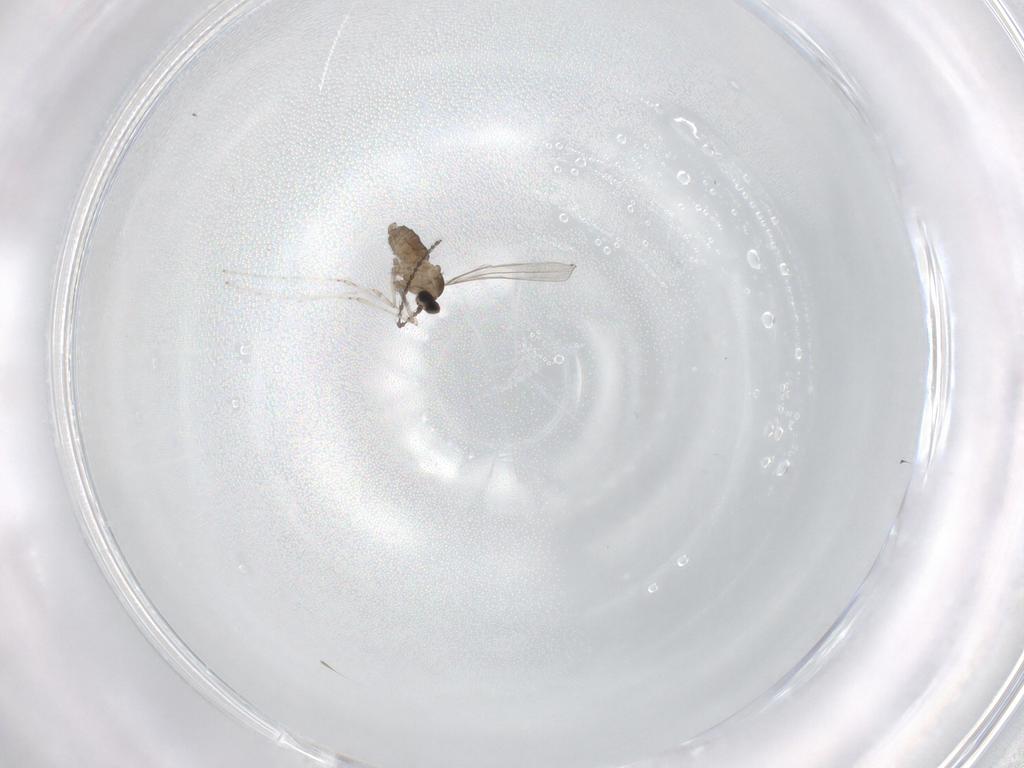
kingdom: Animalia
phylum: Arthropoda
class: Insecta
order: Diptera
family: Cecidomyiidae
